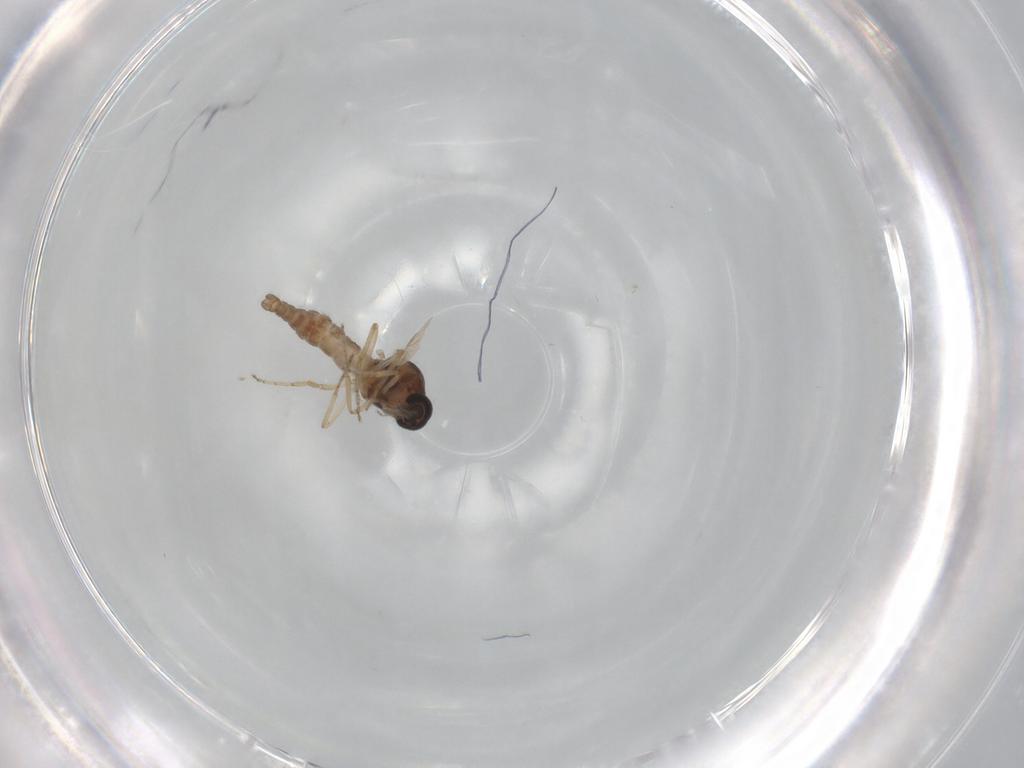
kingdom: Animalia
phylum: Arthropoda
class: Insecta
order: Diptera
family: Ceratopogonidae
